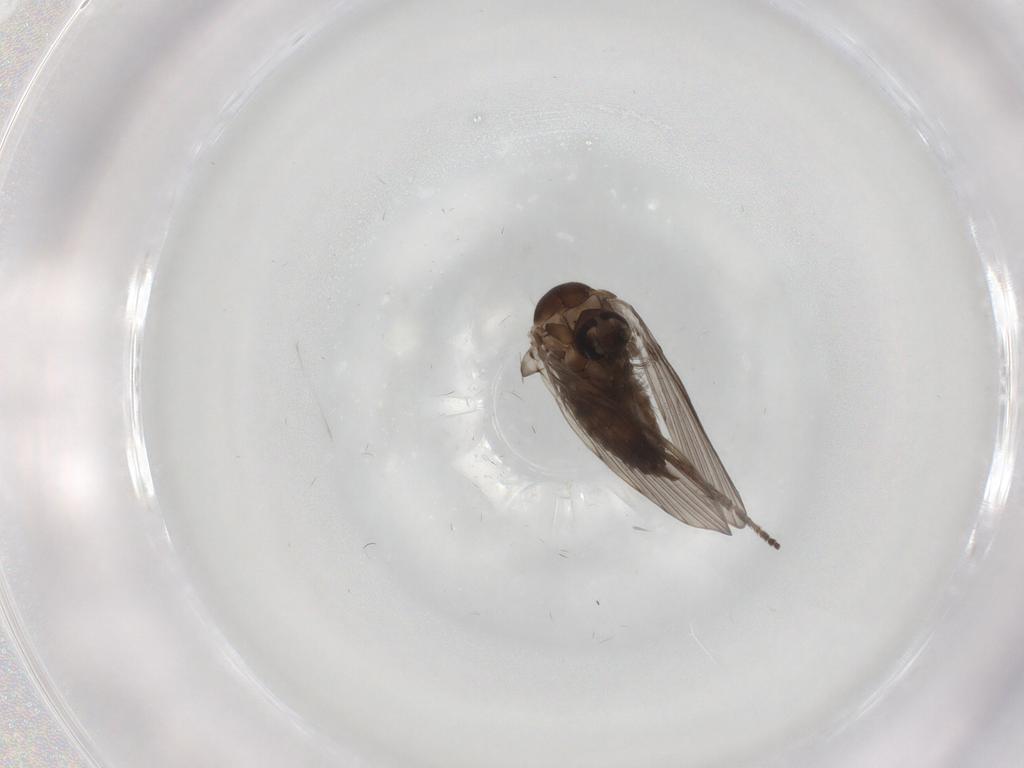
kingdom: Animalia
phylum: Arthropoda
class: Insecta
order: Diptera
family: Psychodidae
